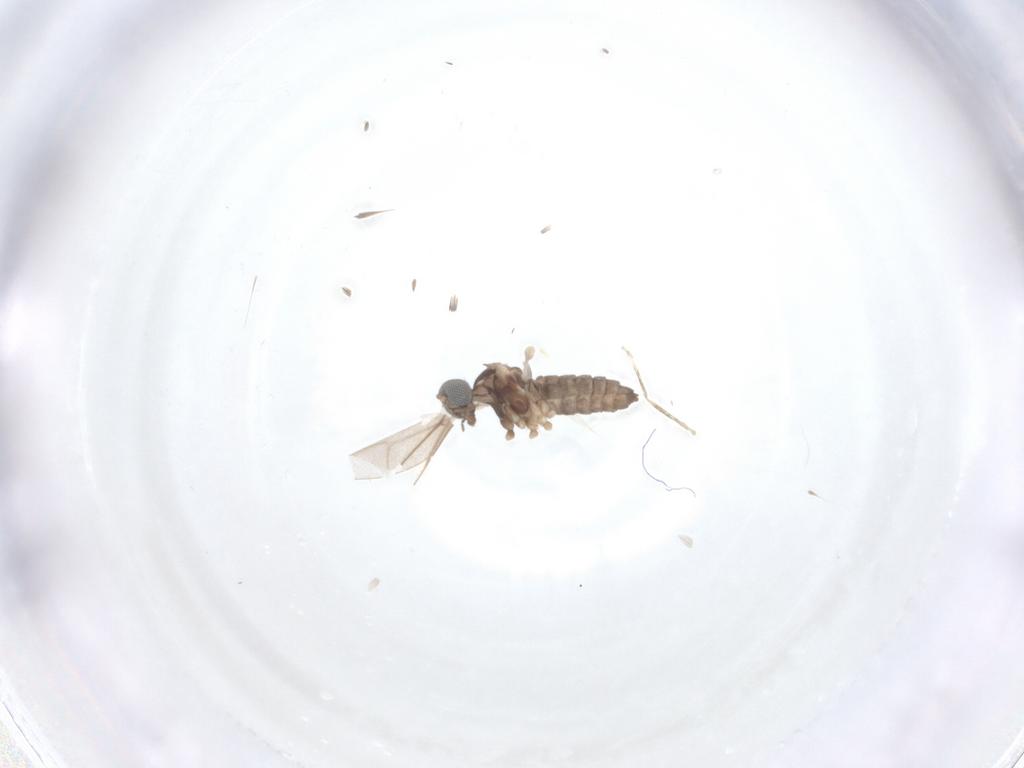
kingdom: Animalia
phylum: Arthropoda
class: Insecta
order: Diptera
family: Cecidomyiidae
